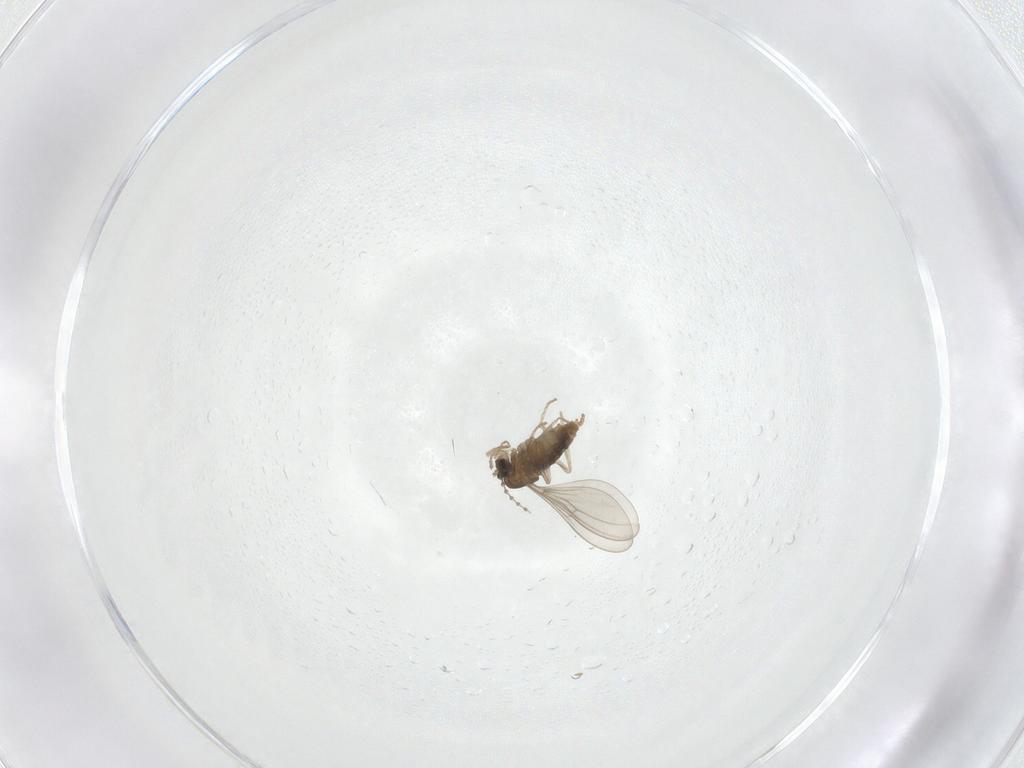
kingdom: Animalia
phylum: Arthropoda
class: Insecta
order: Diptera
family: Cecidomyiidae
